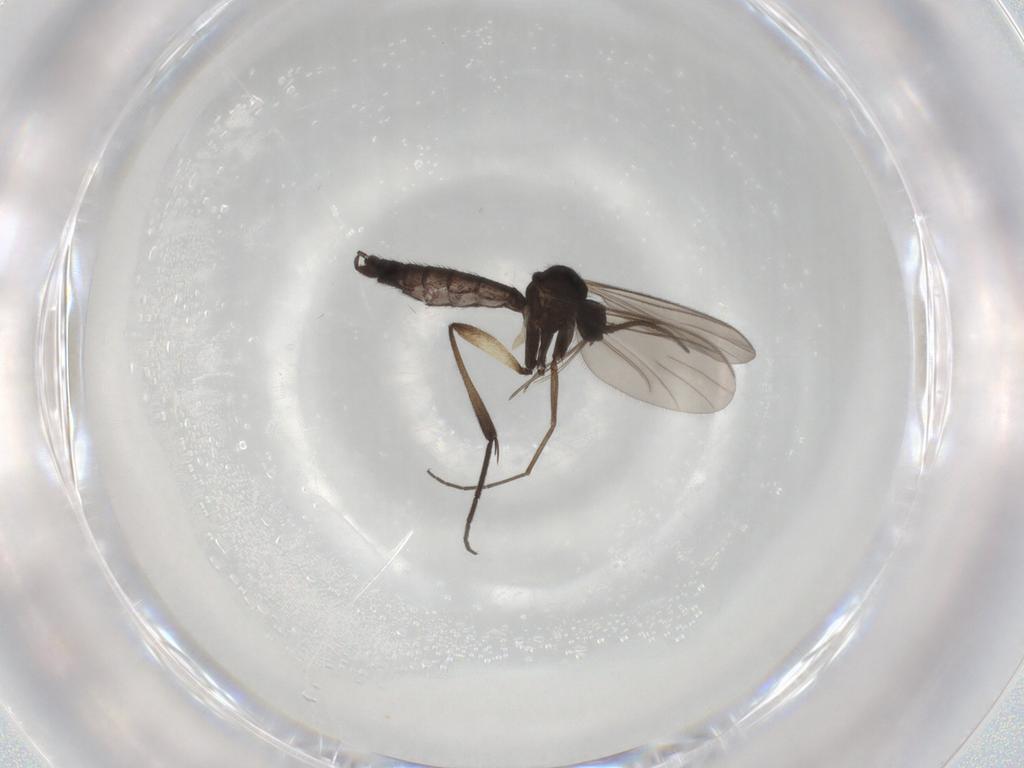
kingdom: Animalia
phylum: Arthropoda
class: Insecta
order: Diptera
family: Keroplatidae
